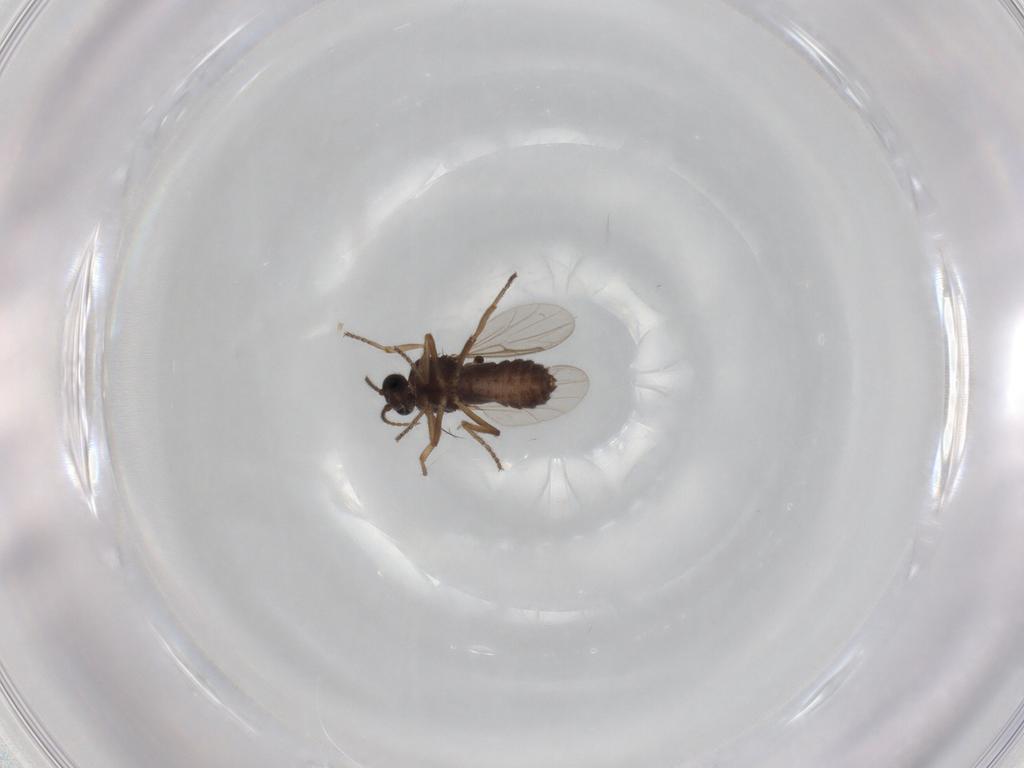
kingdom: Animalia
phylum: Arthropoda
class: Insecta
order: Diptera
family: Ceratopogonidae
